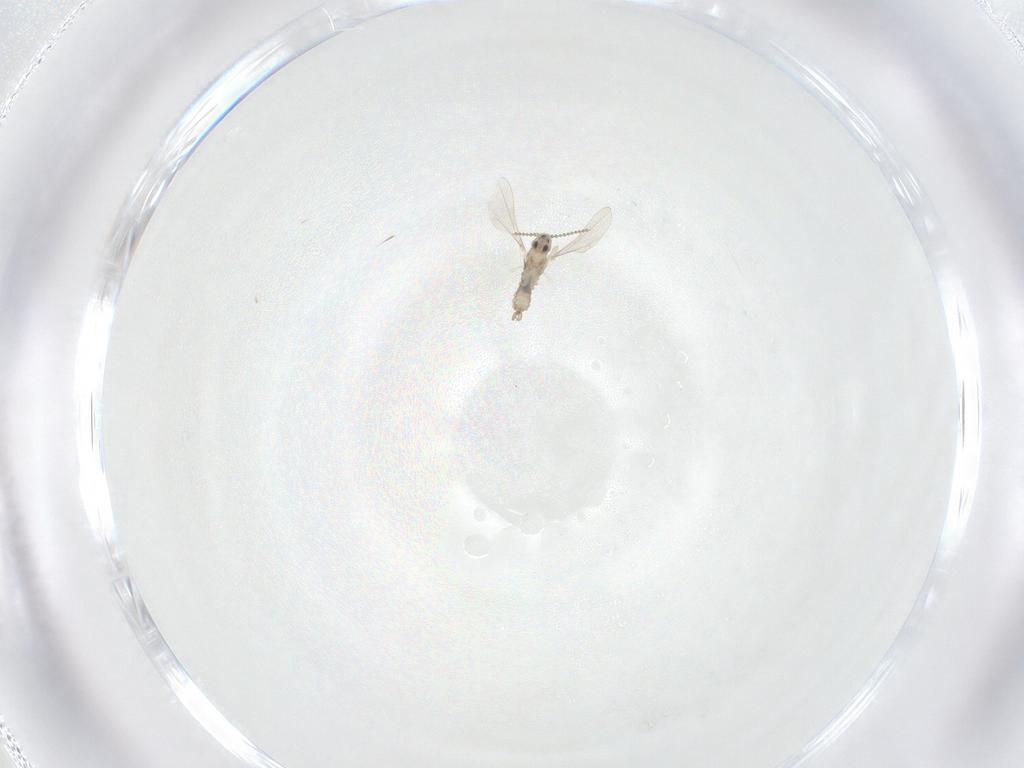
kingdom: Animalia
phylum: Arthropoda
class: Insecta
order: Diptera
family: Cecidomyiidae
